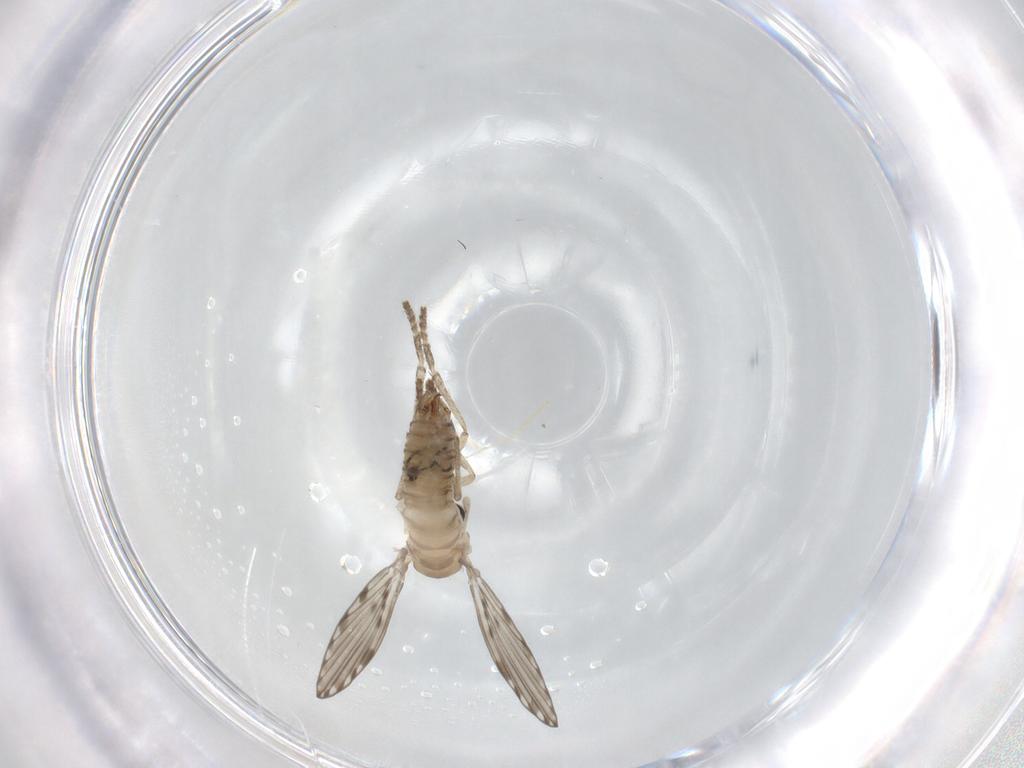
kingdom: Animalia
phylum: Arthropoda
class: Insecta
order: Diptera
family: Psychodidae
